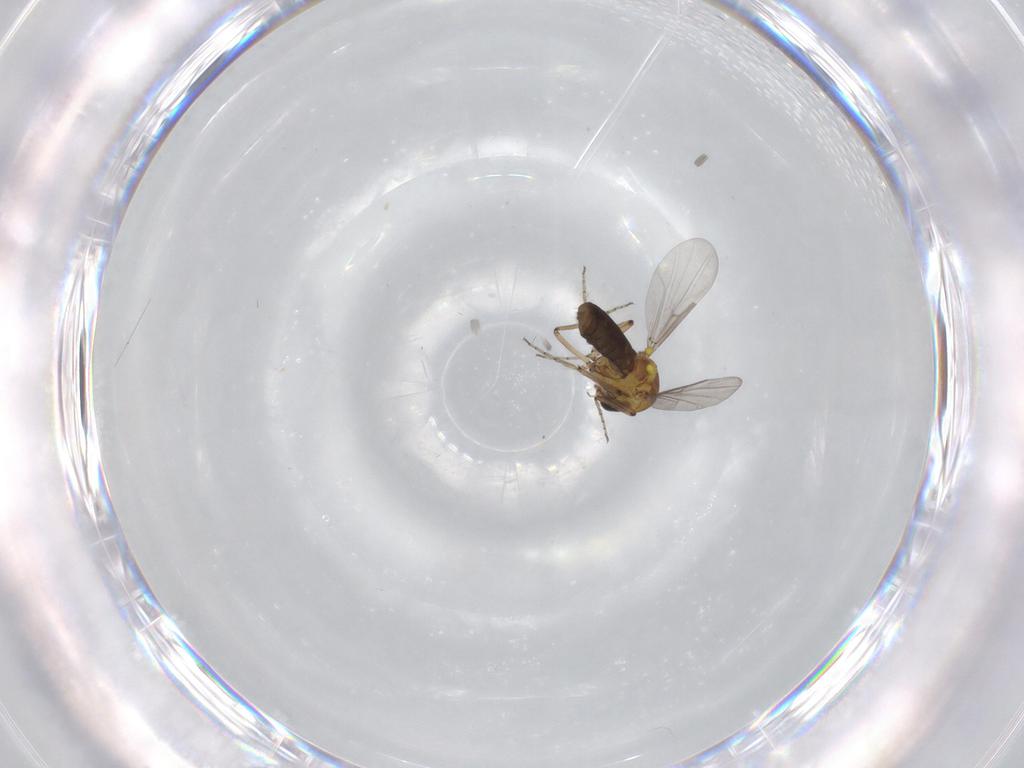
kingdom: Animalia
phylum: Arthropoda
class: Insecta
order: Diptera
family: Ceratopogonidae
